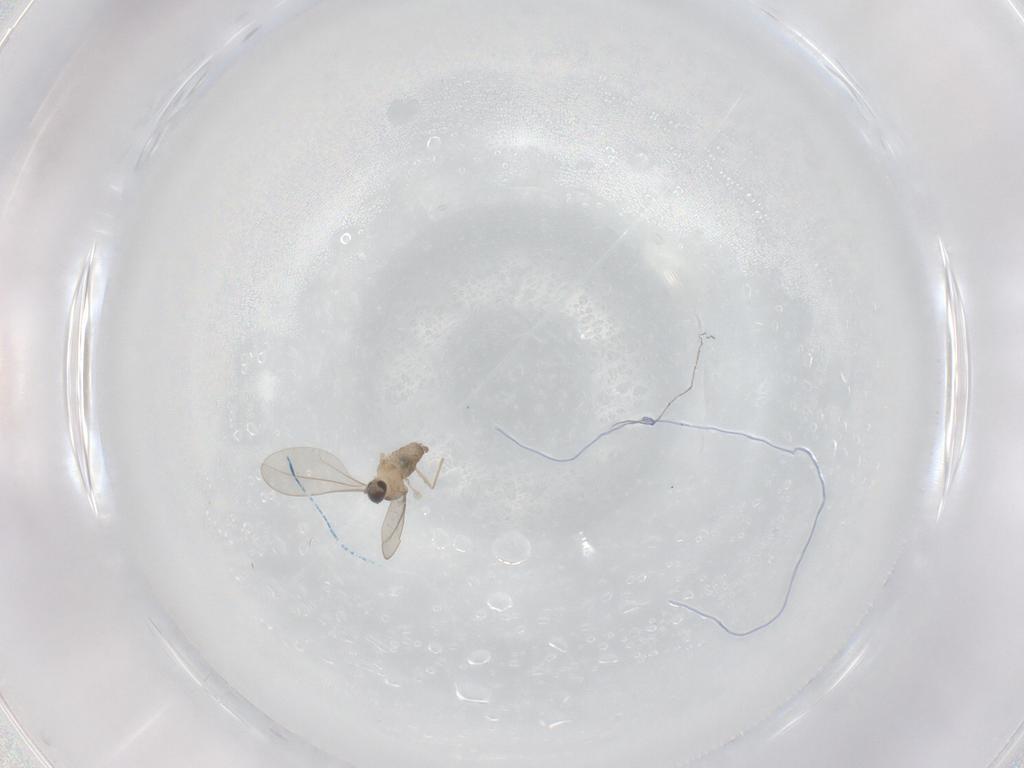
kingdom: Animalia
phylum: Arthropoda
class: Insecta
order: Diptera
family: Cecidomyiidae
